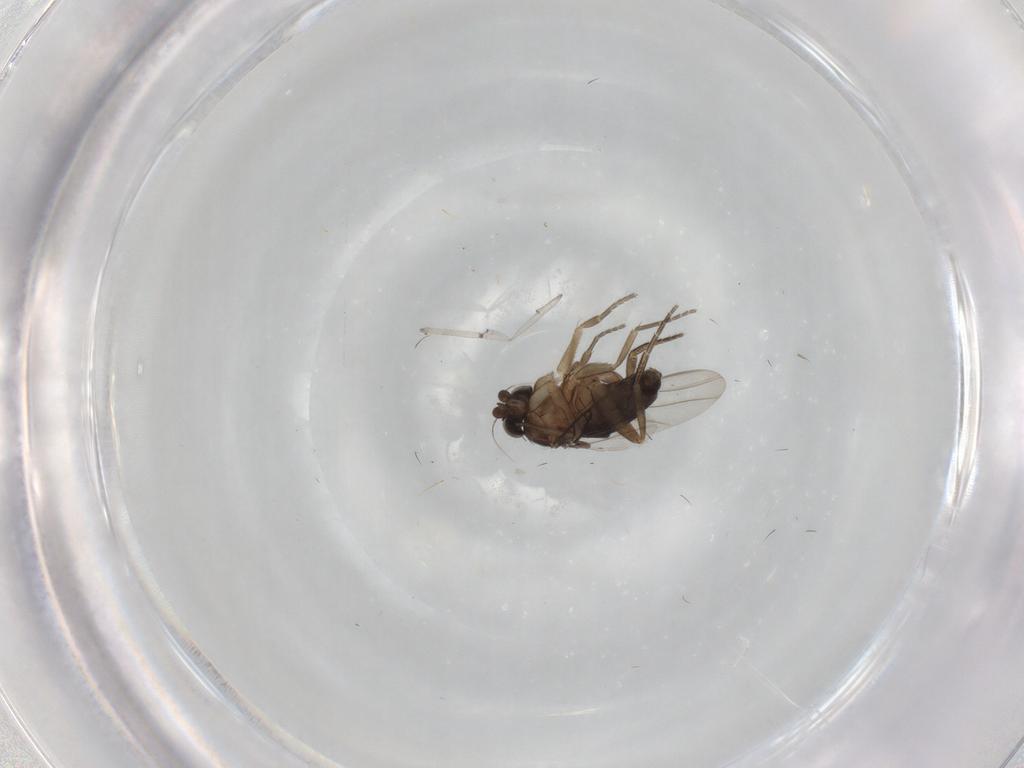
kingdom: Animalia
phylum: Arthropoda
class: Insecta
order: Diptera
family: Phoridae
